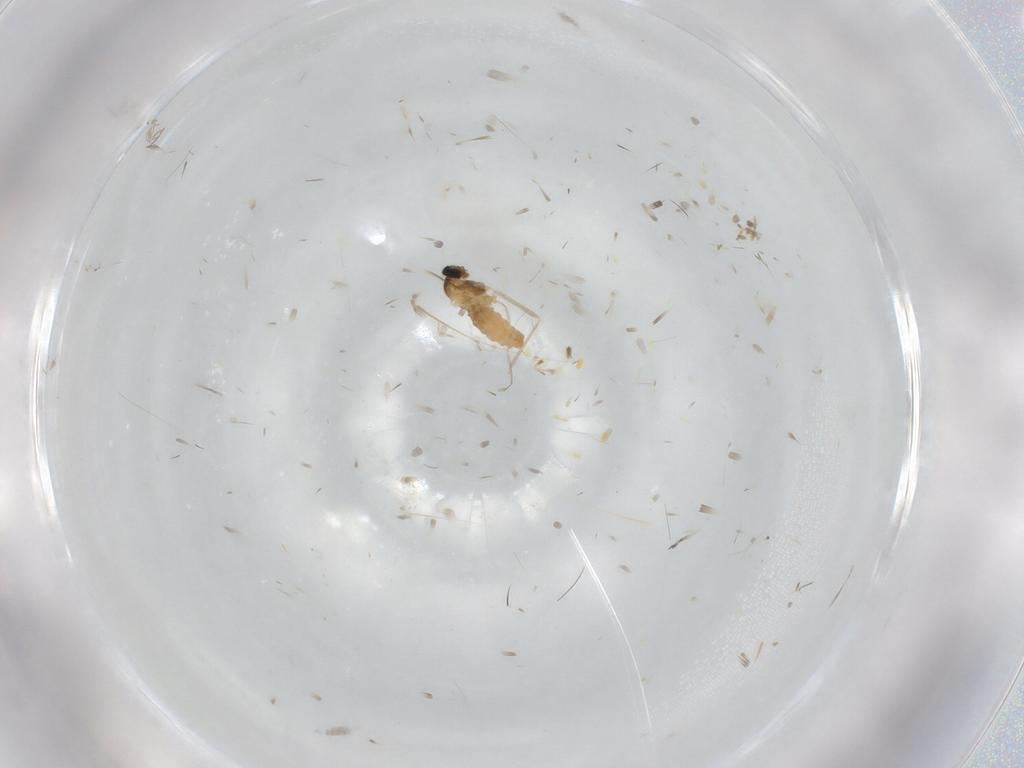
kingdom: Animalia
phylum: Arthropoda
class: Insecta
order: Diptera
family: Cecidomyiidae
